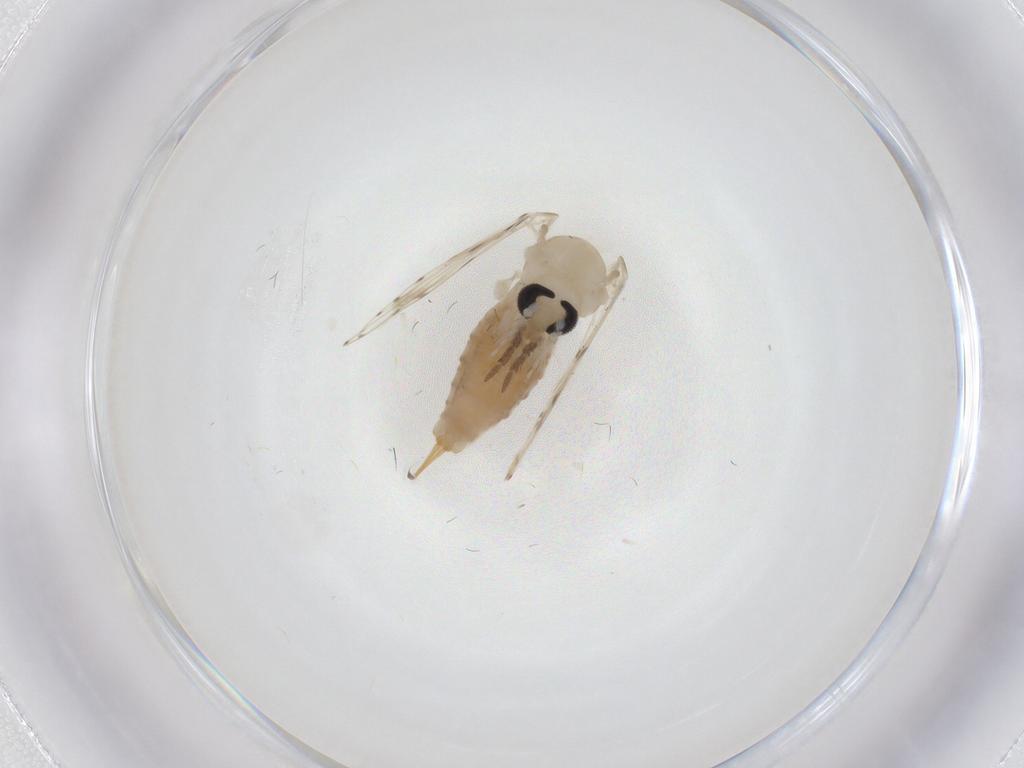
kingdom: Animalia
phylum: Arthropoda
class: Insecta
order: Diptera
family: Psychodidae
